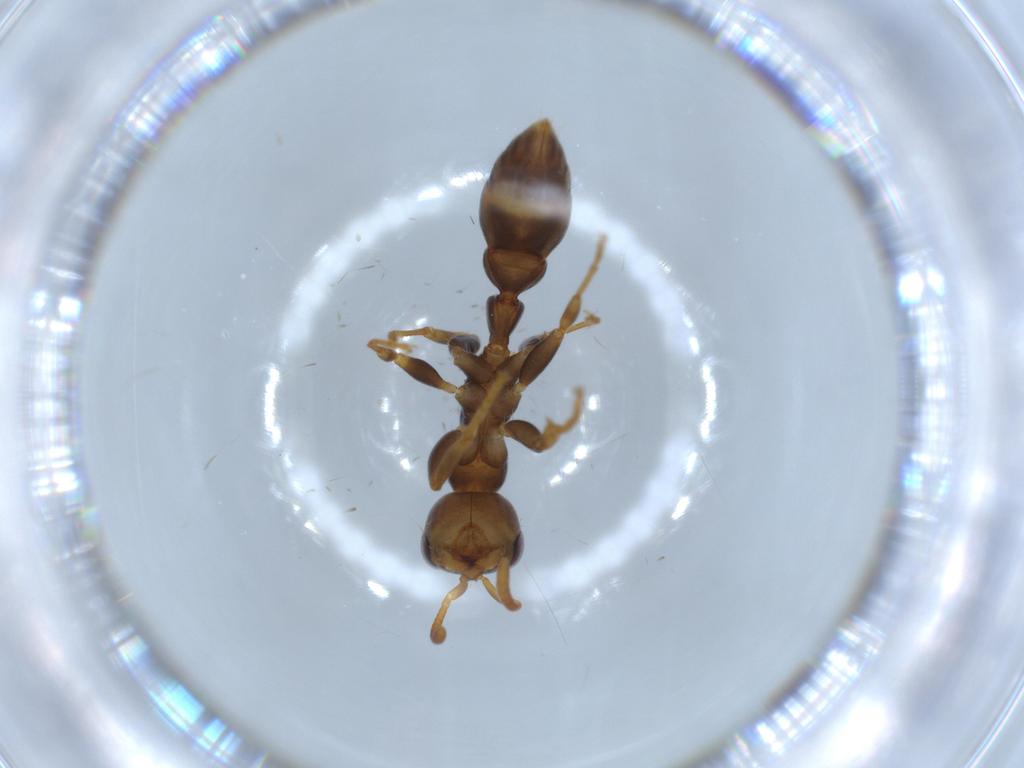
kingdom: Animalia
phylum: Arthropoda
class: Insecta
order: Hymenoptera
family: Formicidae
